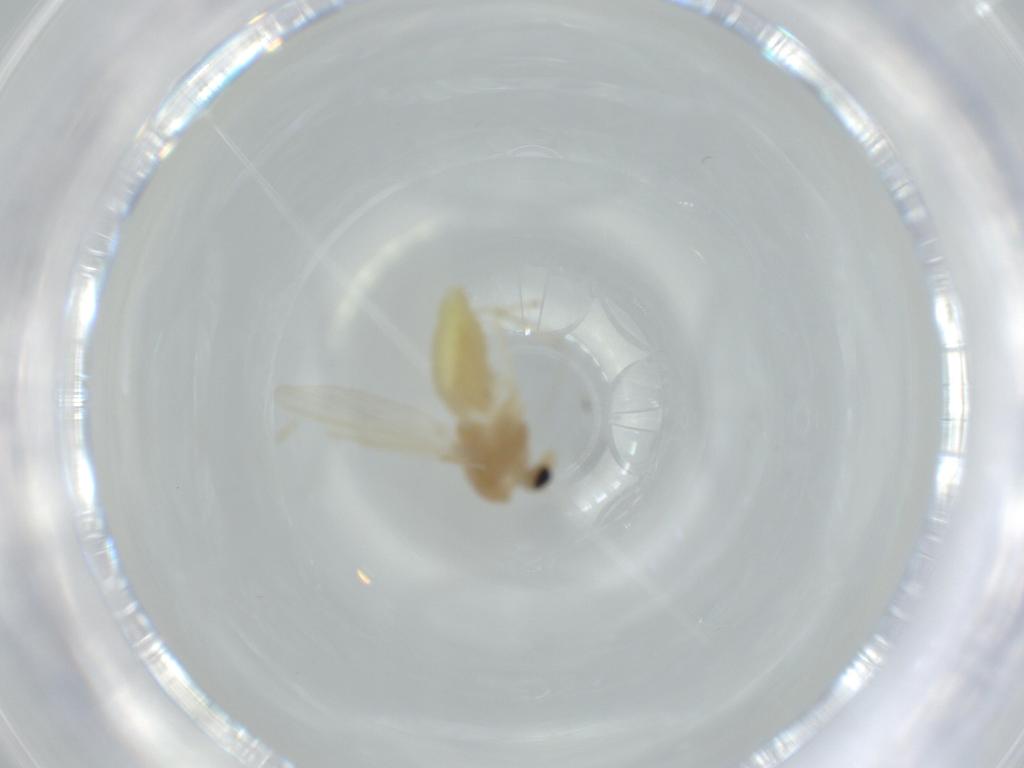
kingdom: Animalia
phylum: Arthropoda
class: Insecta
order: Diptera
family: Chironomidae
